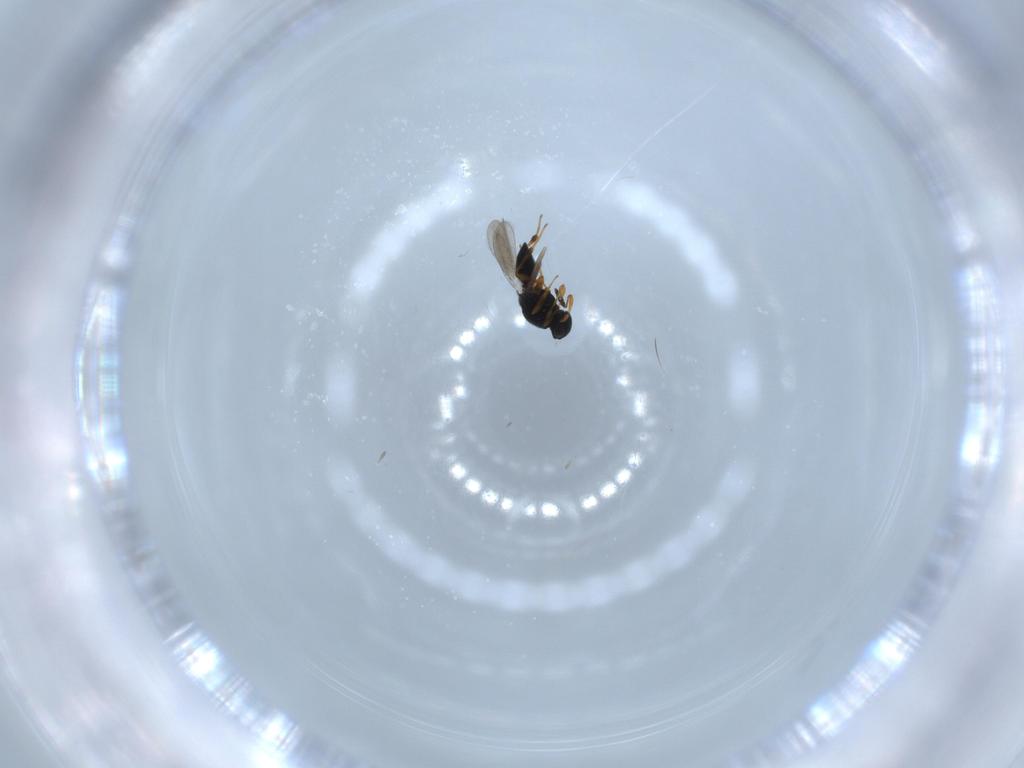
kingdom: Animalia
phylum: Arthropoda
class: Insecta
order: Hymenoptera
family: Platygastridae
